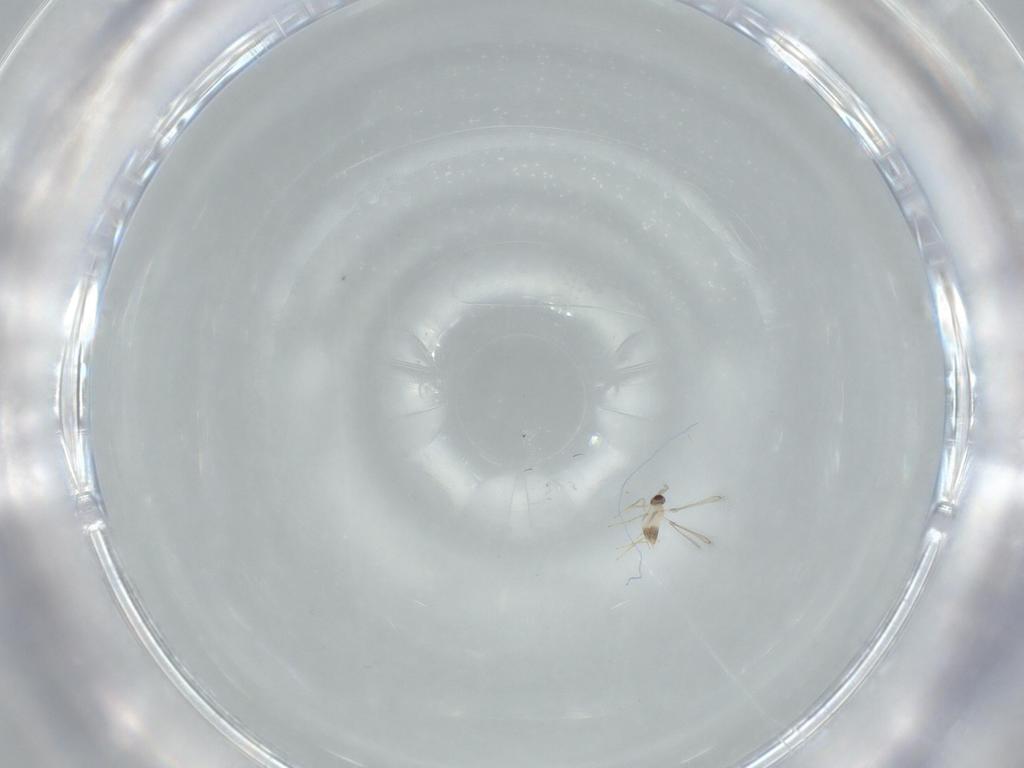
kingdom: Animalia
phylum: Arthropoda
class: Insecta
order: Hymenoptera
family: Mymaridae
